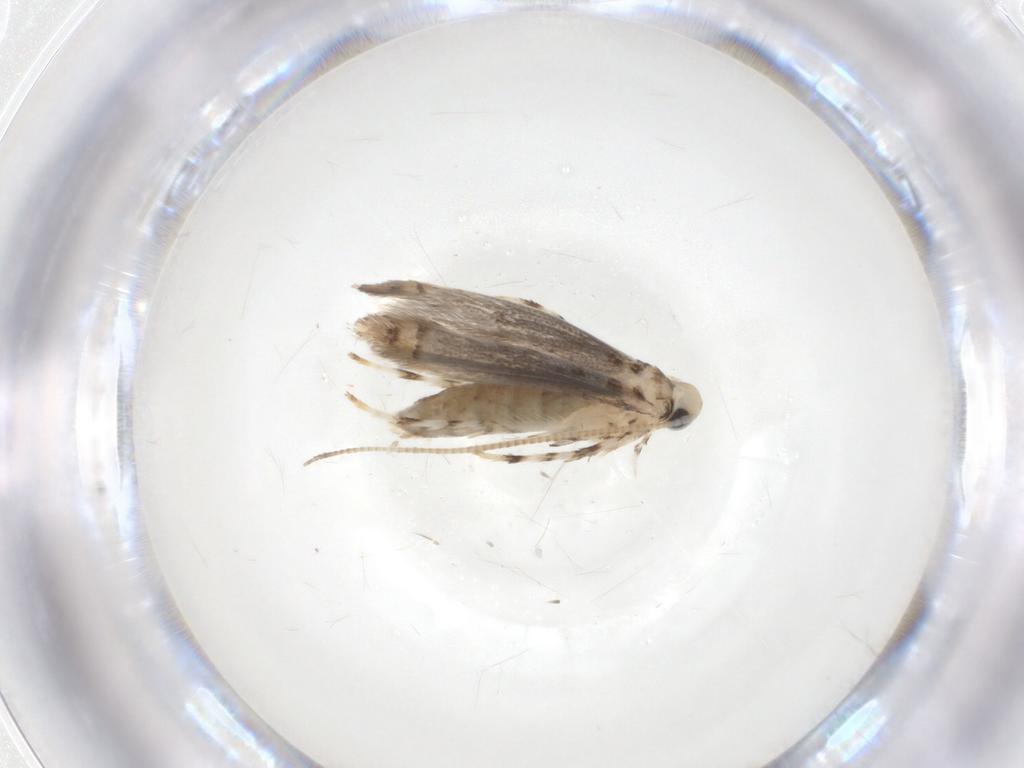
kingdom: Animalia
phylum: Arthropoda
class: Insecta
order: Lepidoptera
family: Gracillariidae
